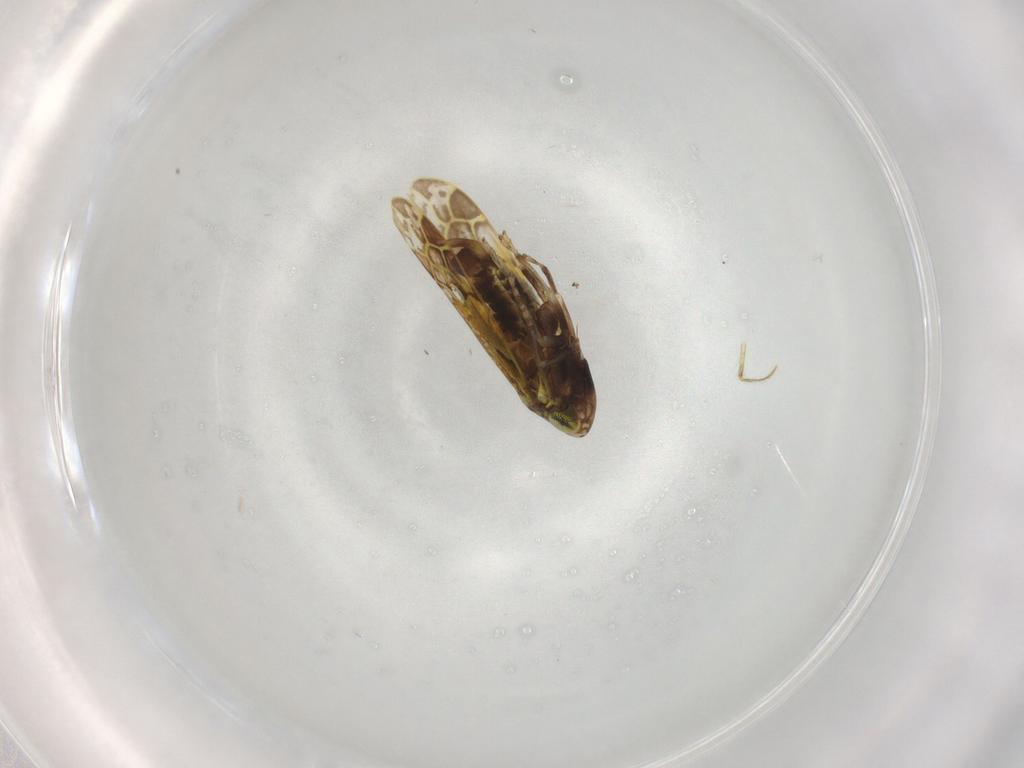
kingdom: Animalia
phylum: Arthropoda
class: Insecta
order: Hemiptera
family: Cicadellidae
